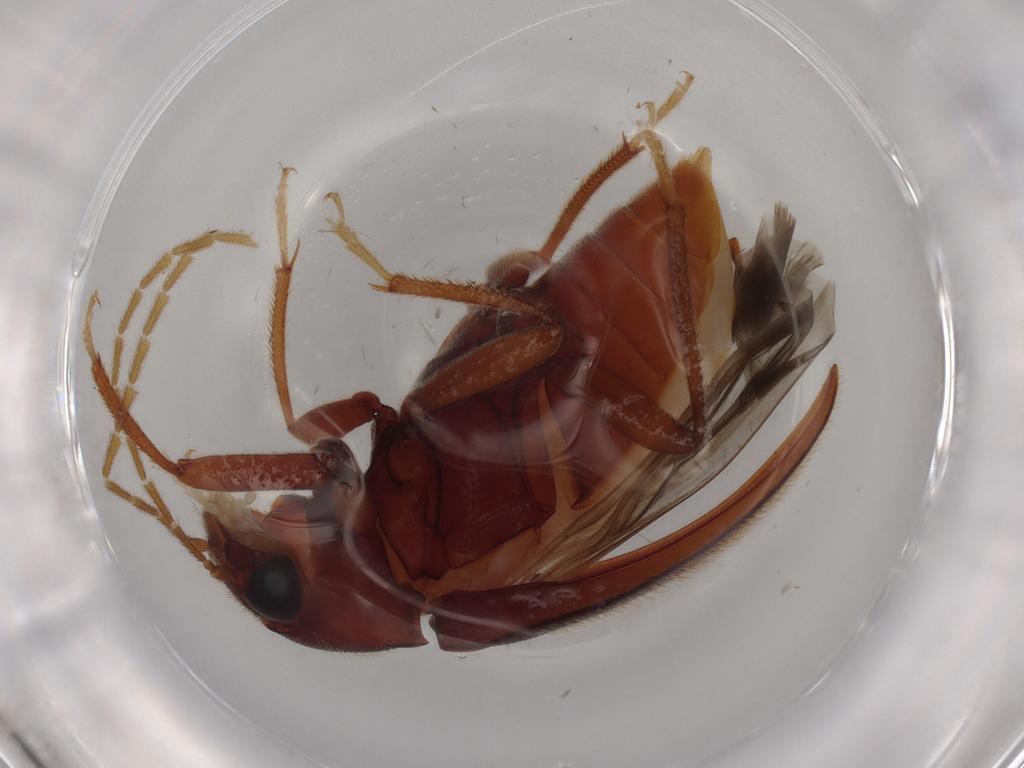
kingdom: Animalia
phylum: Arthropoda
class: Insecta
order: Coleoptera
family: Ptilodactylidae
